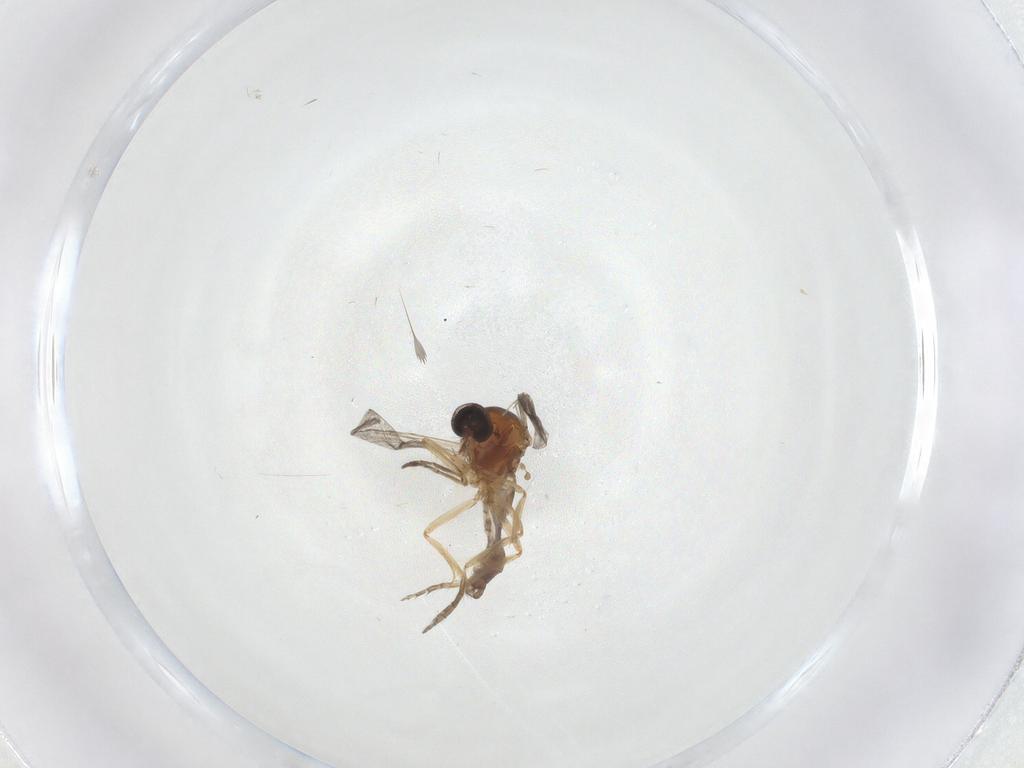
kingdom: Animalia
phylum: Arthropoda
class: Insecta
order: Diptera
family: Ceratopogonidae
